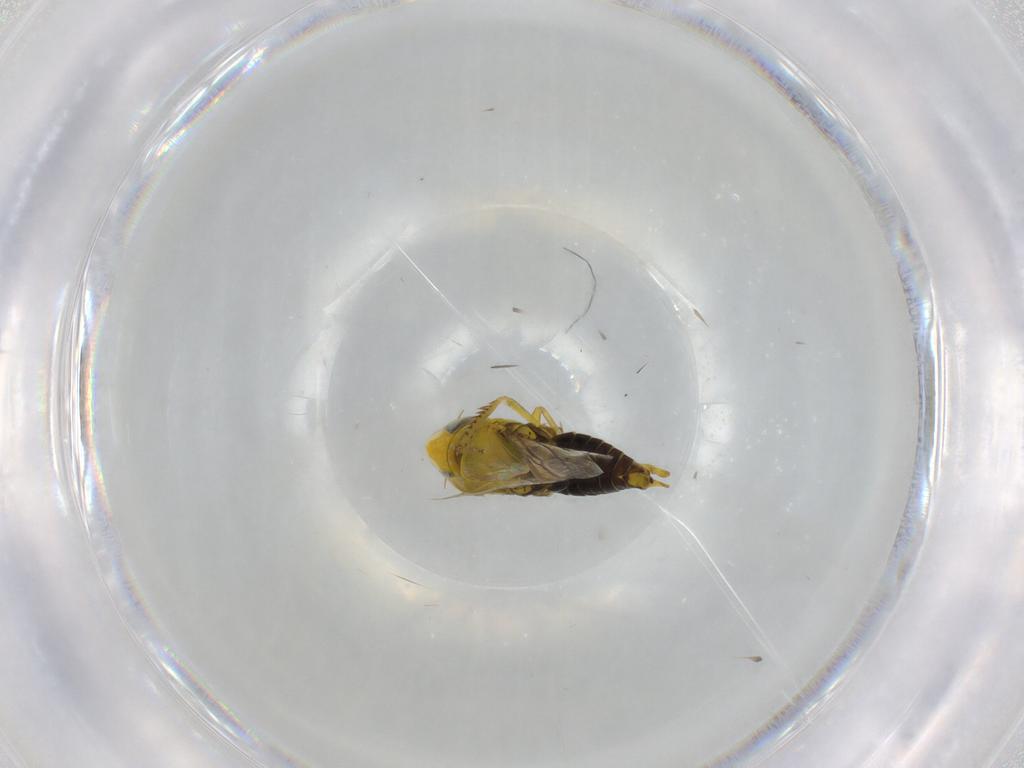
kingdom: Animalia
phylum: Arthropoda
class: Insecta
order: Hemiptera
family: Cicadellidae
